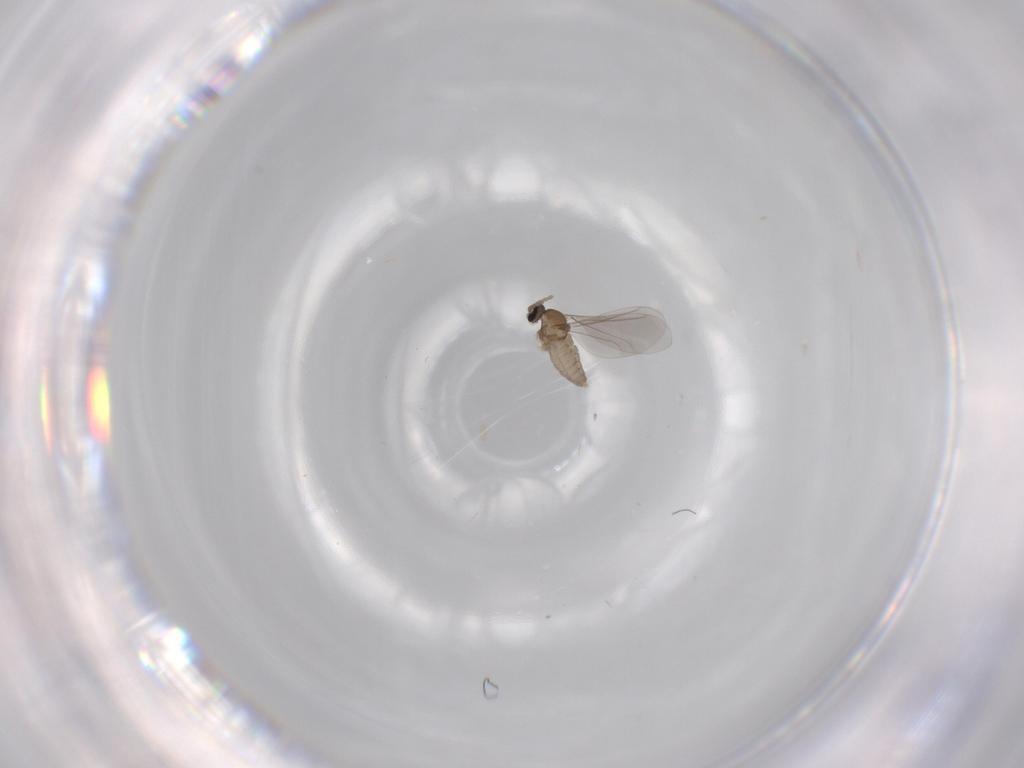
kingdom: Animalia
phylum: Arthropoda
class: Insecta
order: Diptera
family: Cecidomyiidae
